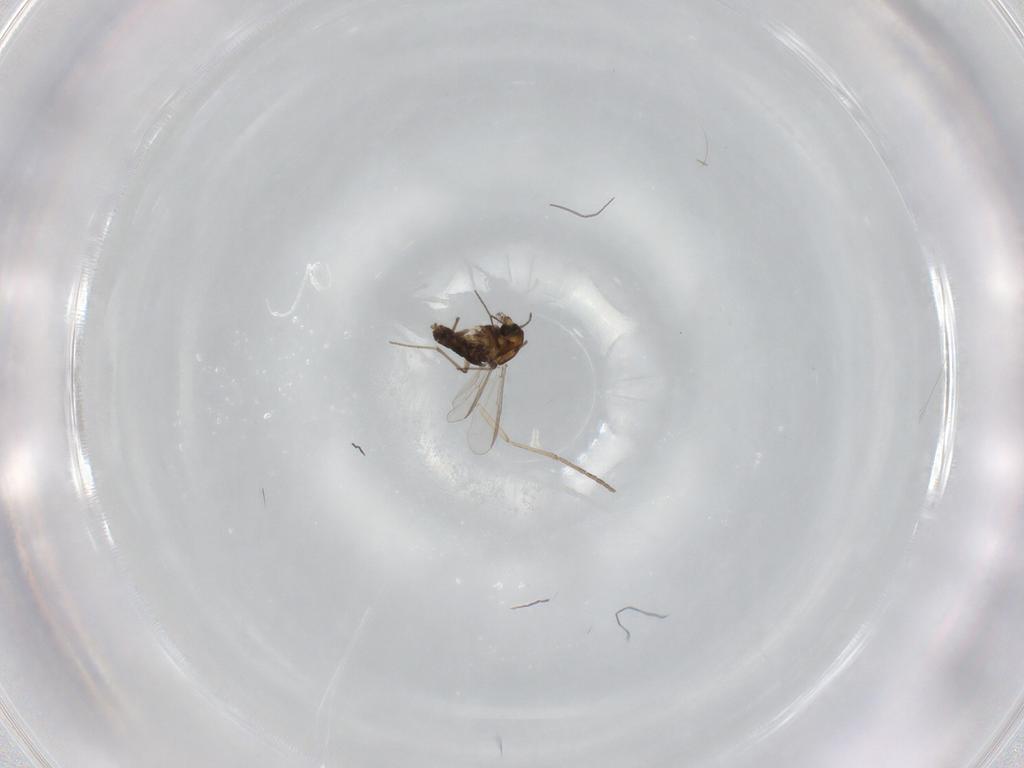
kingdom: Animalia
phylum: Arthropoda
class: Insecta
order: Diptera
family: Chironomidae
